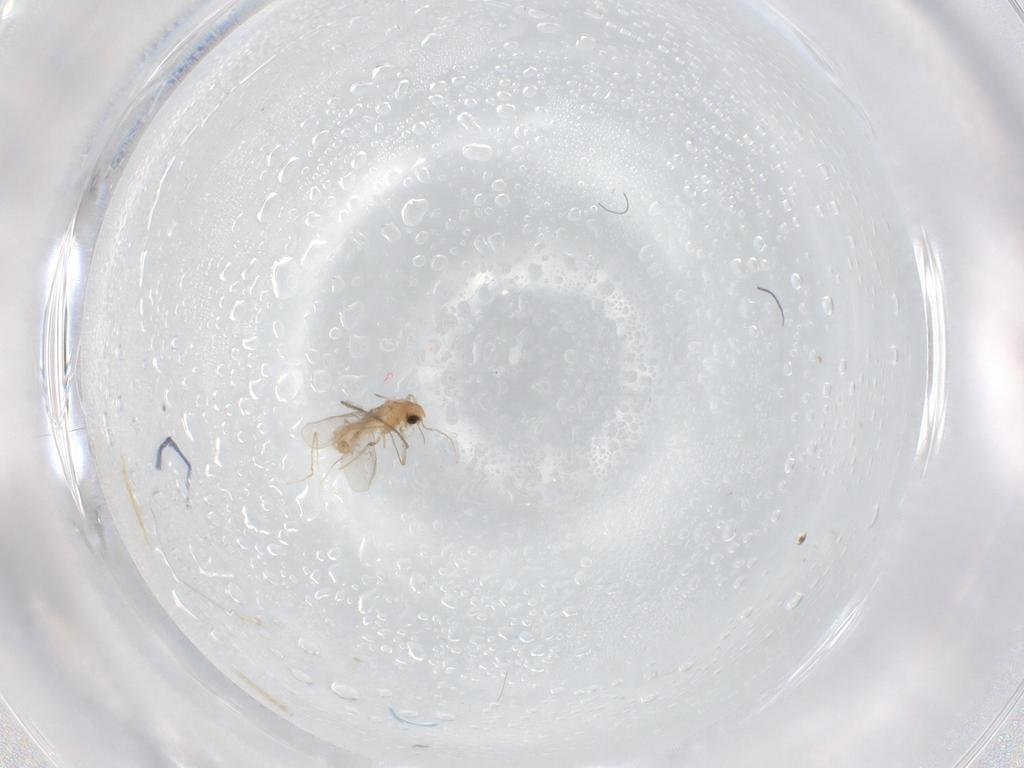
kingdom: Animalia
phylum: Arthropoda
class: Insecta
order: Diptera
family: Chironomidae
